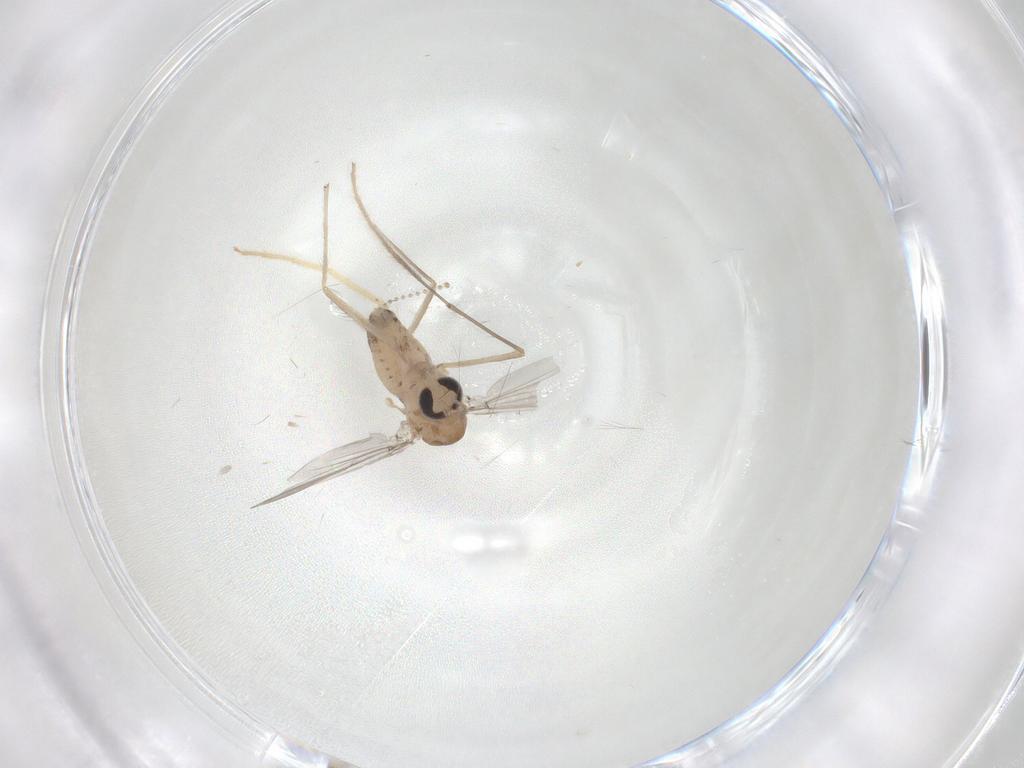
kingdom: Animalia
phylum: Arthropoda
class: Insecta
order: Diptera
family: Chironomidae
